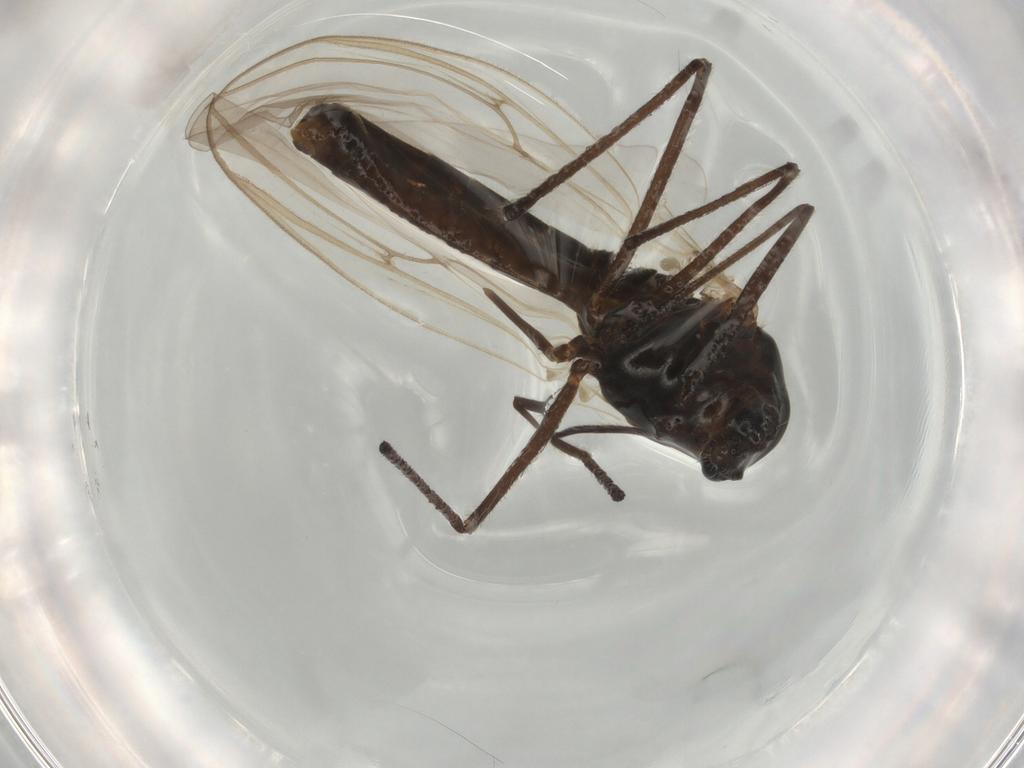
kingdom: Animalia
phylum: Arthropoda
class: Insecta
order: Diptera
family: Chironomidae
